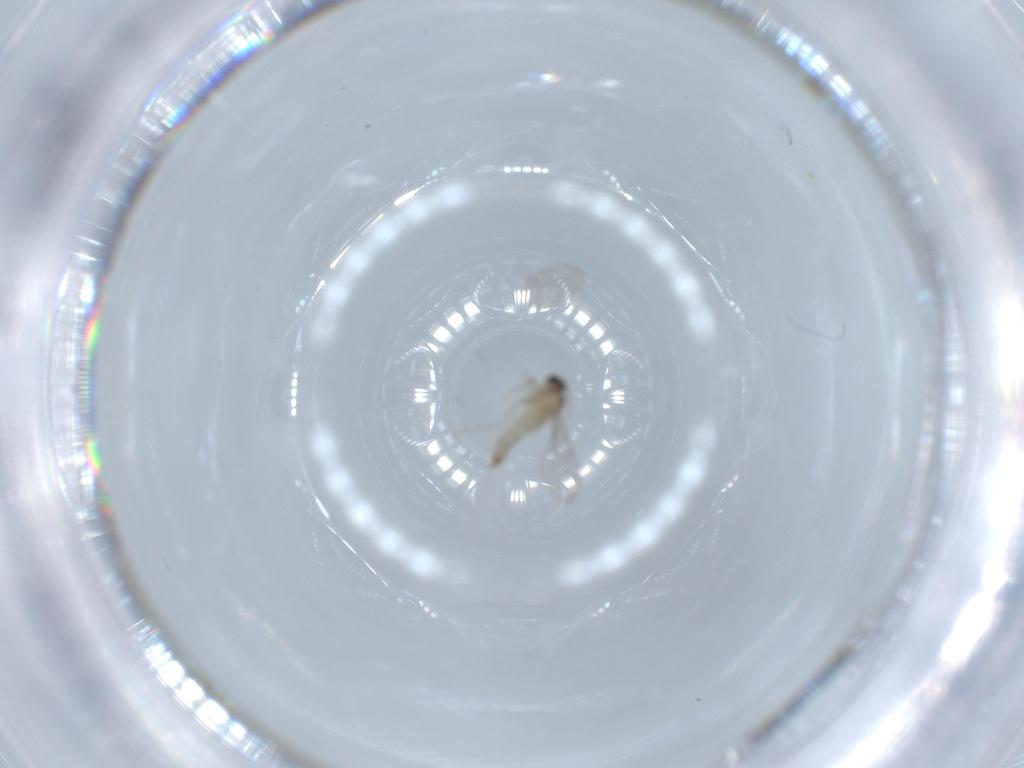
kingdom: Animalia
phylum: Arthropoda
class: Insecta
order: Diptera
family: Cecidomyiidae
